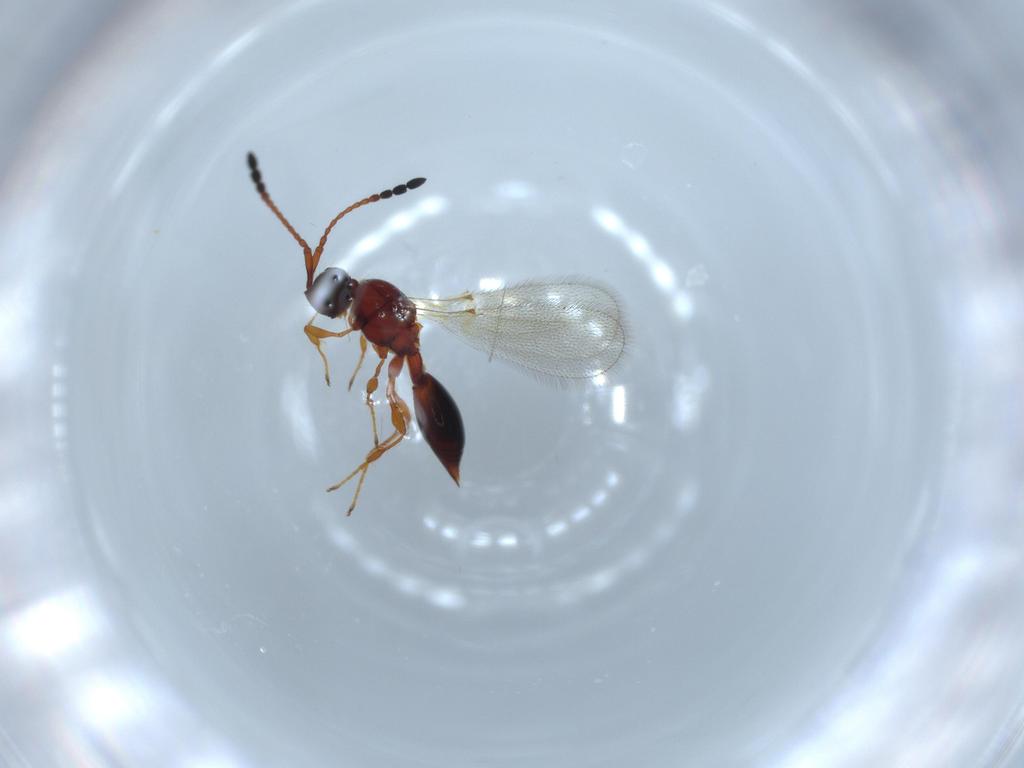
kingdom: Animalia
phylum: Arthropoda
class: Insecta
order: Hymenoptera
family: Diapriidae
